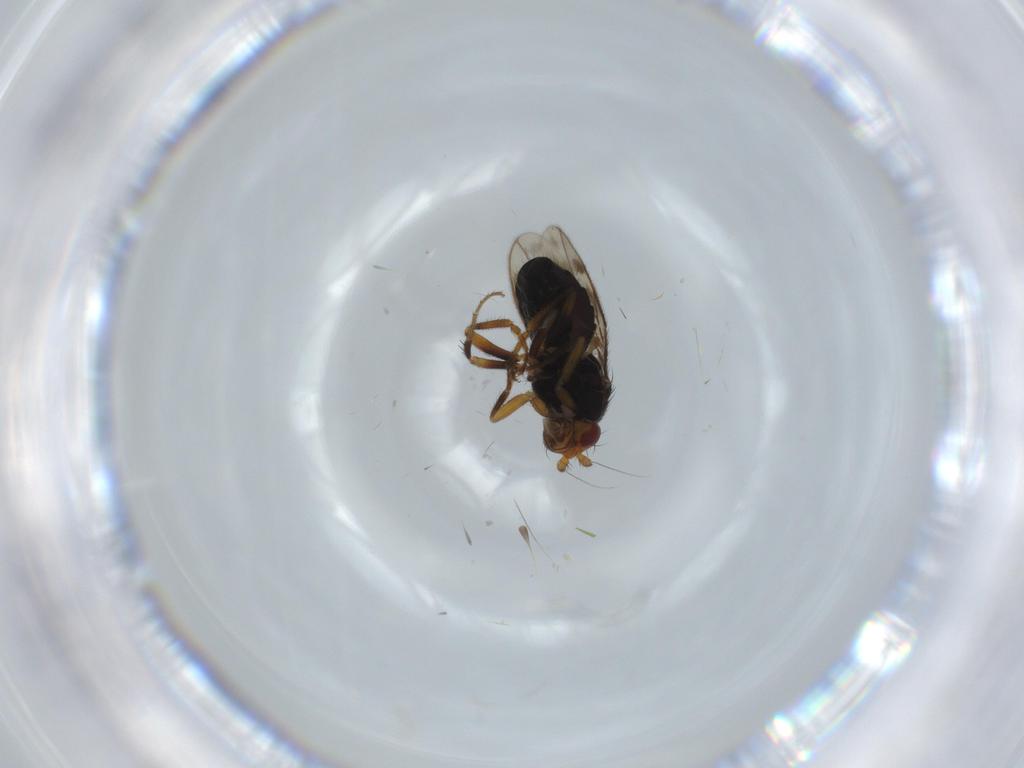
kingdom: Animalia
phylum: Arthropoda
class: Insecta
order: Diptera
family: Sphaeroceridae
